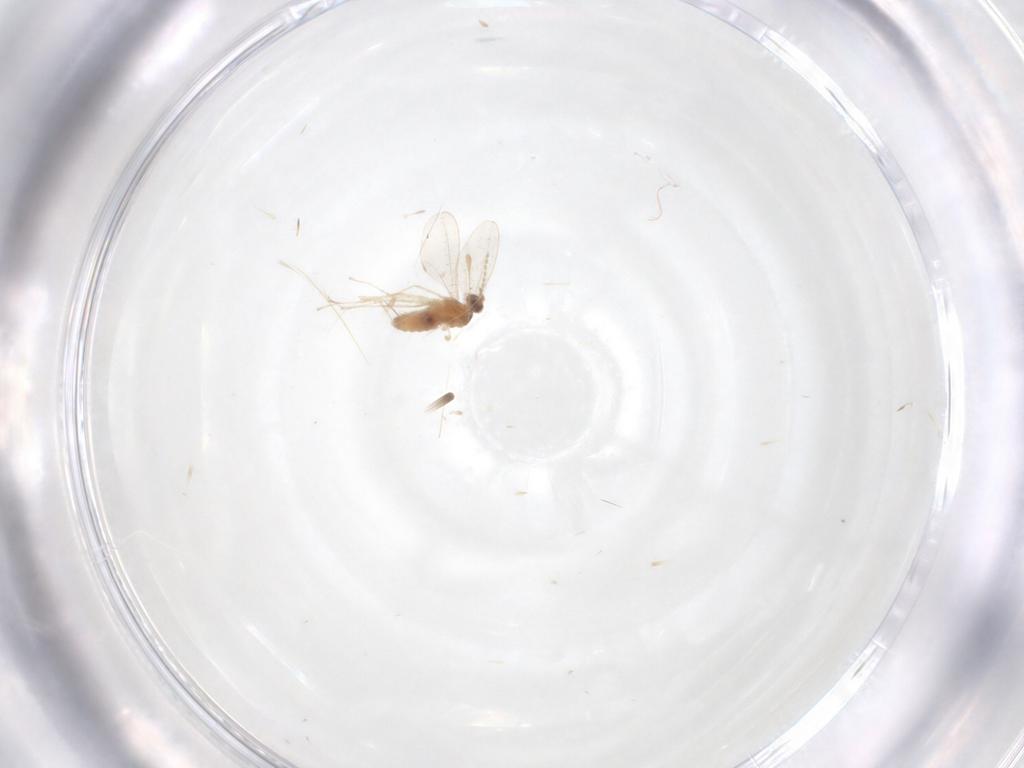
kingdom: Animalia
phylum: Arthropoda
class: Insecta
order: Diptera
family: Cecidomyiidae
